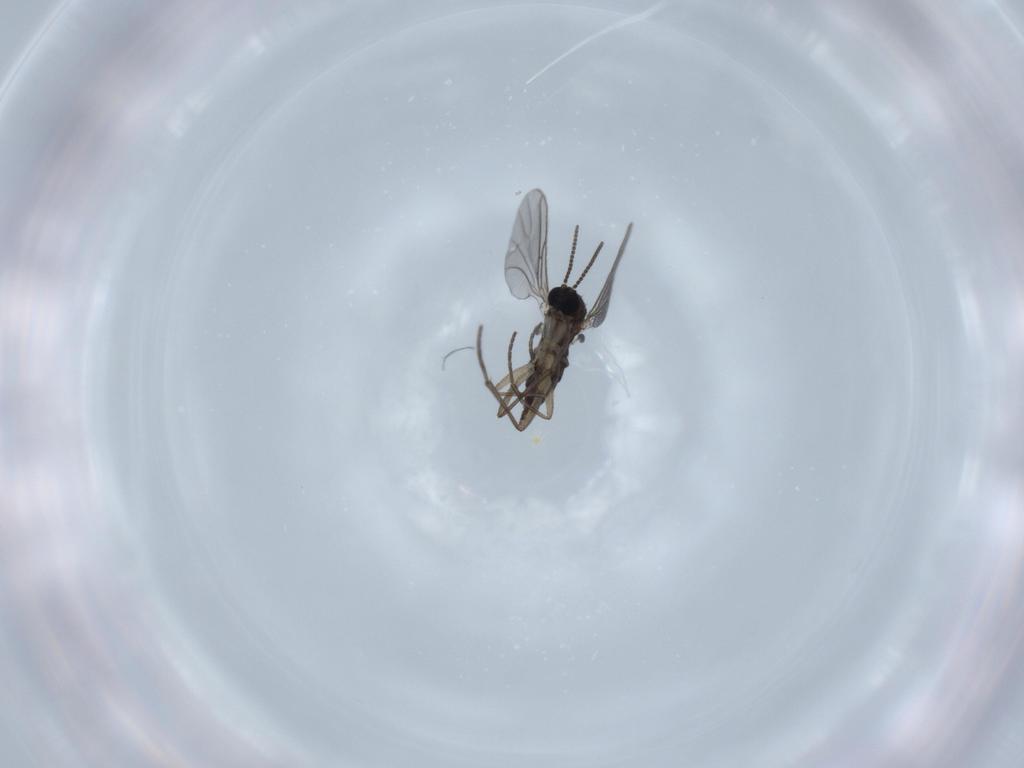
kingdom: Animalia
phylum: Arthropoda
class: Insecta
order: Diptera
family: Sciaridae
